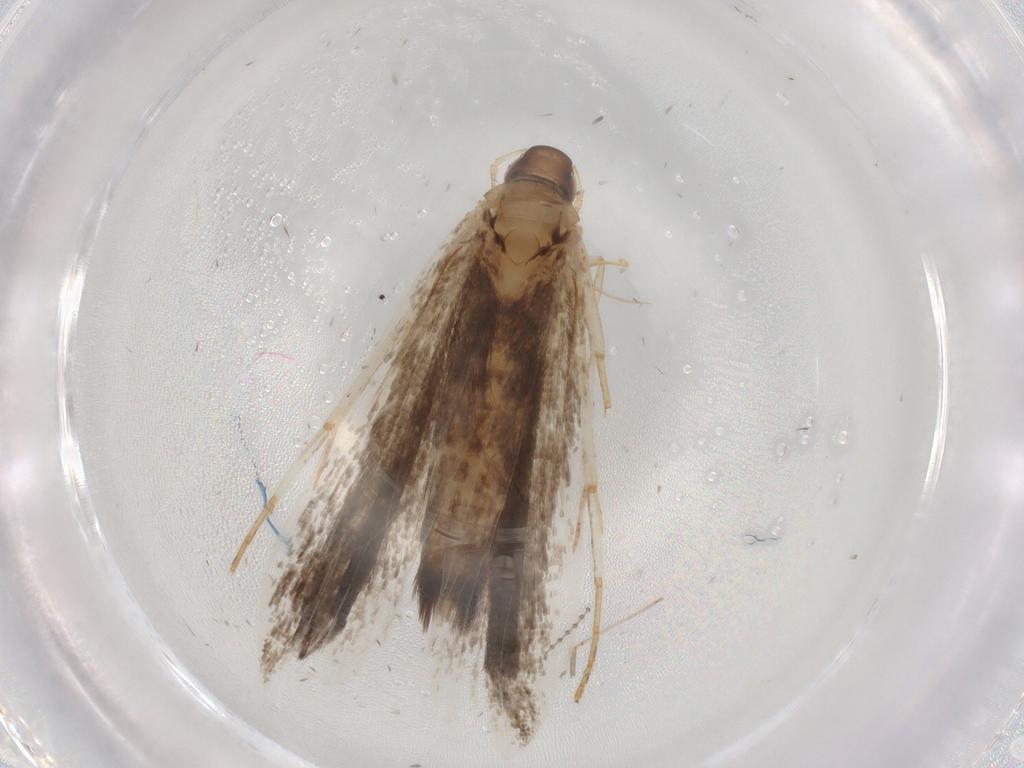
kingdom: Animalia
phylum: Arthropoda
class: Insecta
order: Lepidoptera
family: Gelechiidae
